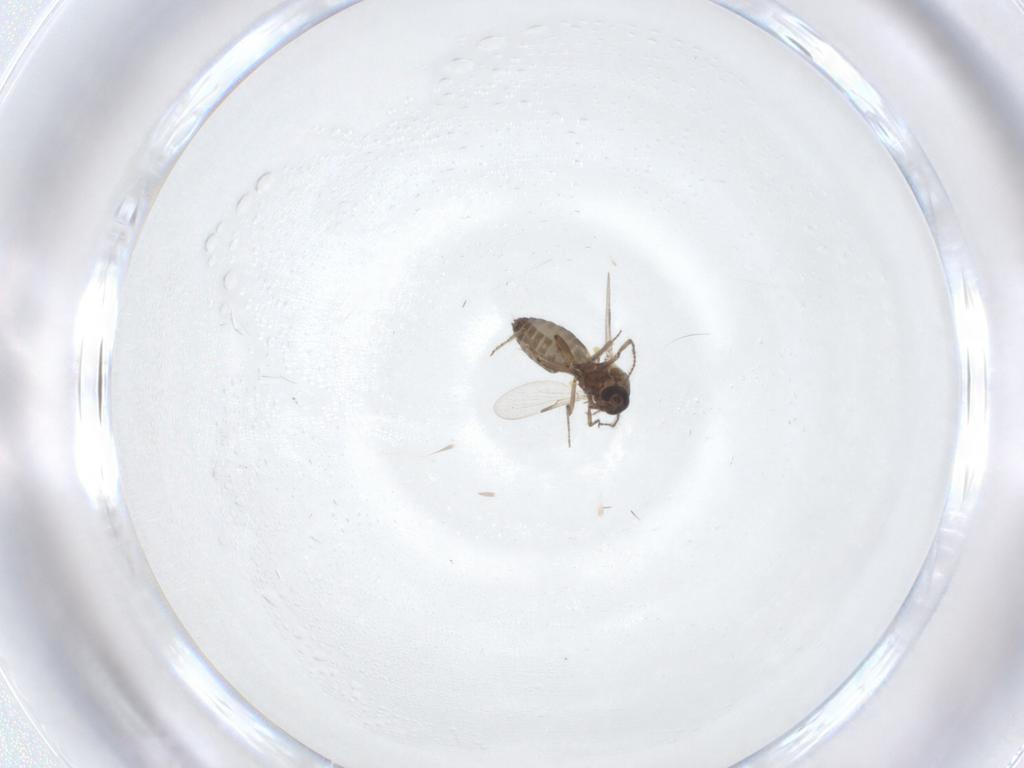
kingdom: Animalia
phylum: Arthropoda
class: Insecta
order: Diptera
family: Ceratopogonidae
